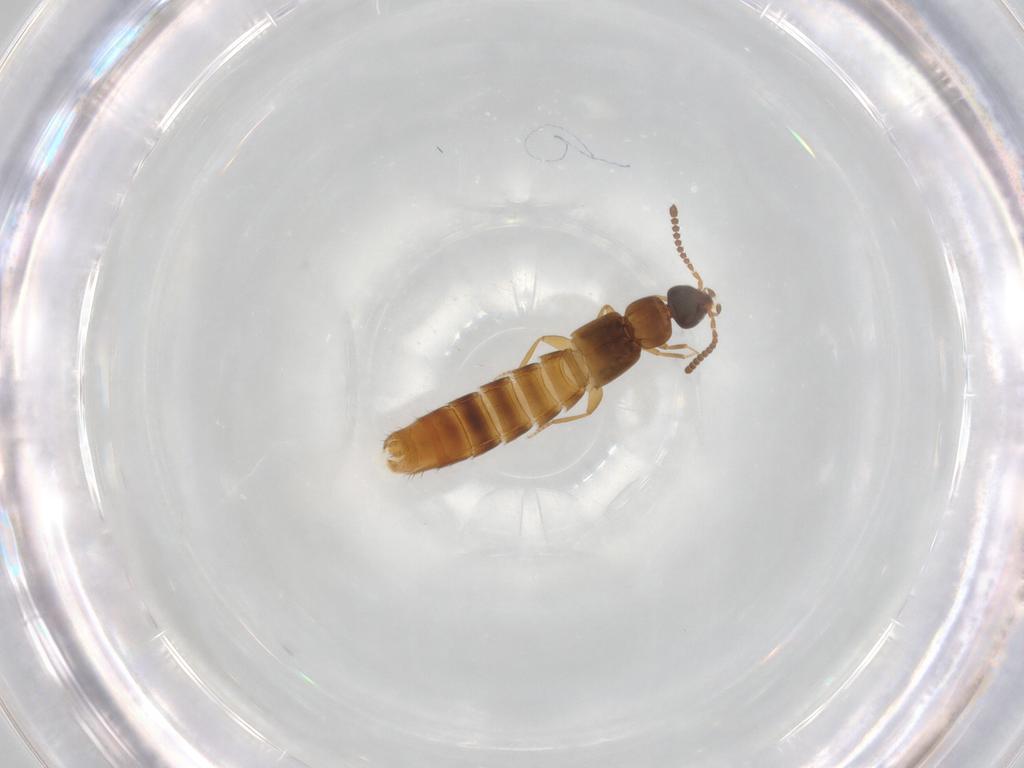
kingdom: Animalia
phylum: Arthropoda
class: Insecta
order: Coleoptera
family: Staphylinidae
